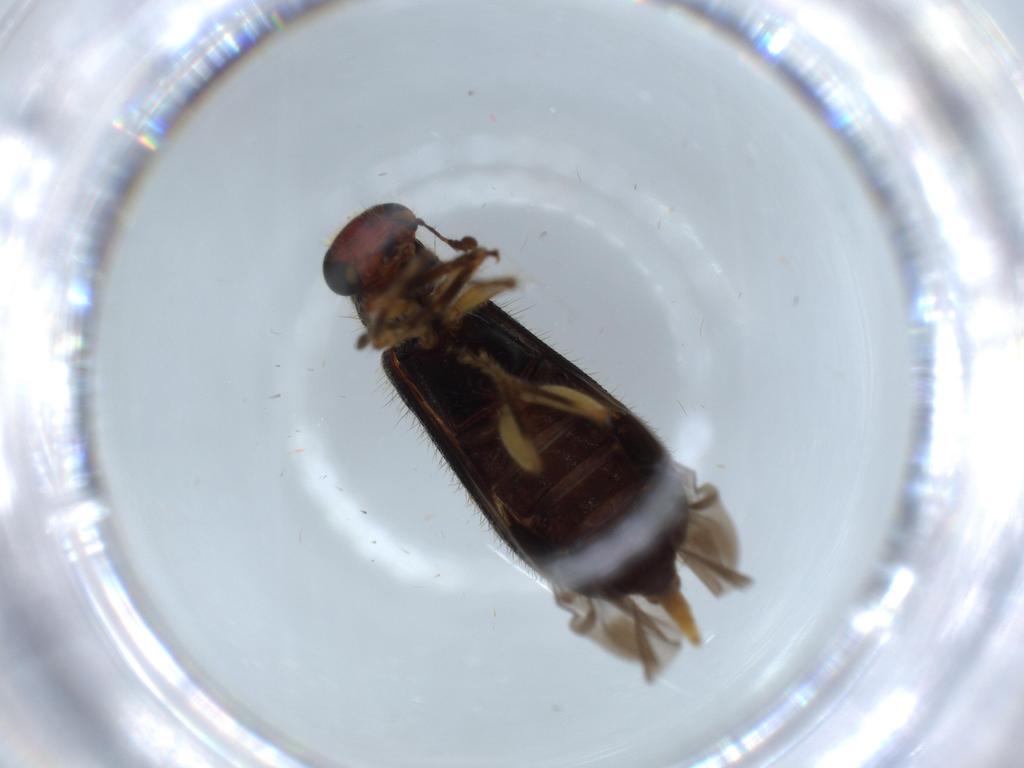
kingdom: Animalia
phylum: Arthropoda
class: Insecta
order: Coleoptera
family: Cleridae
